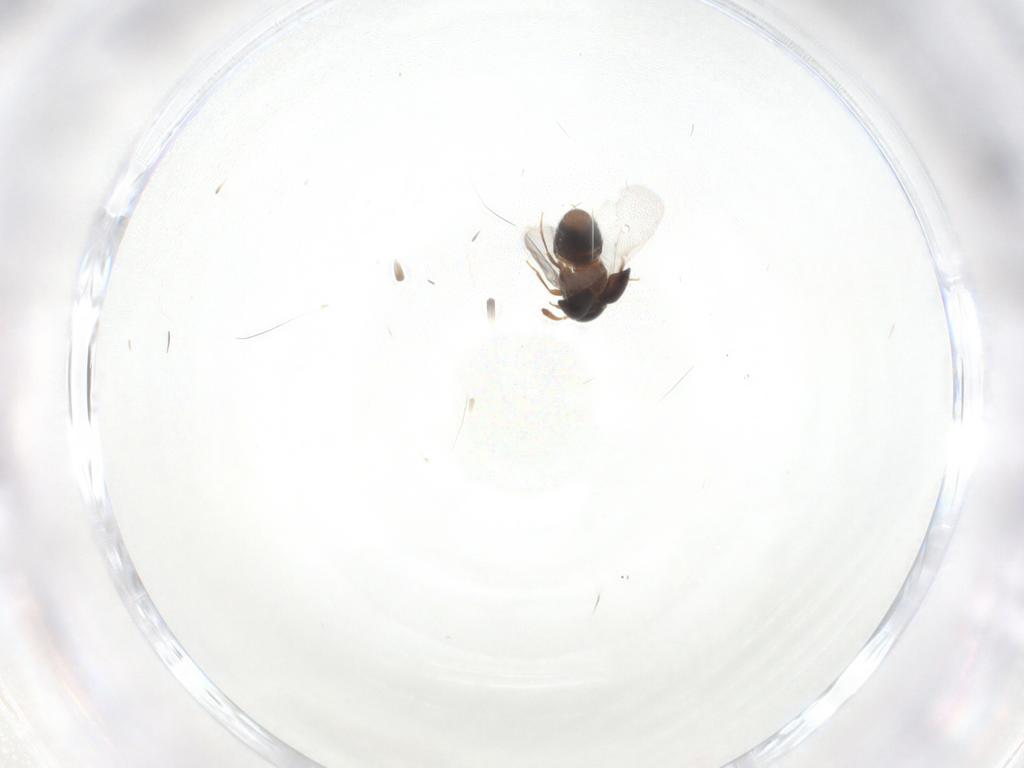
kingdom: Animalia
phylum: Arthropoda
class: Insecta
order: Coleoptera
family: Staphylinidae
